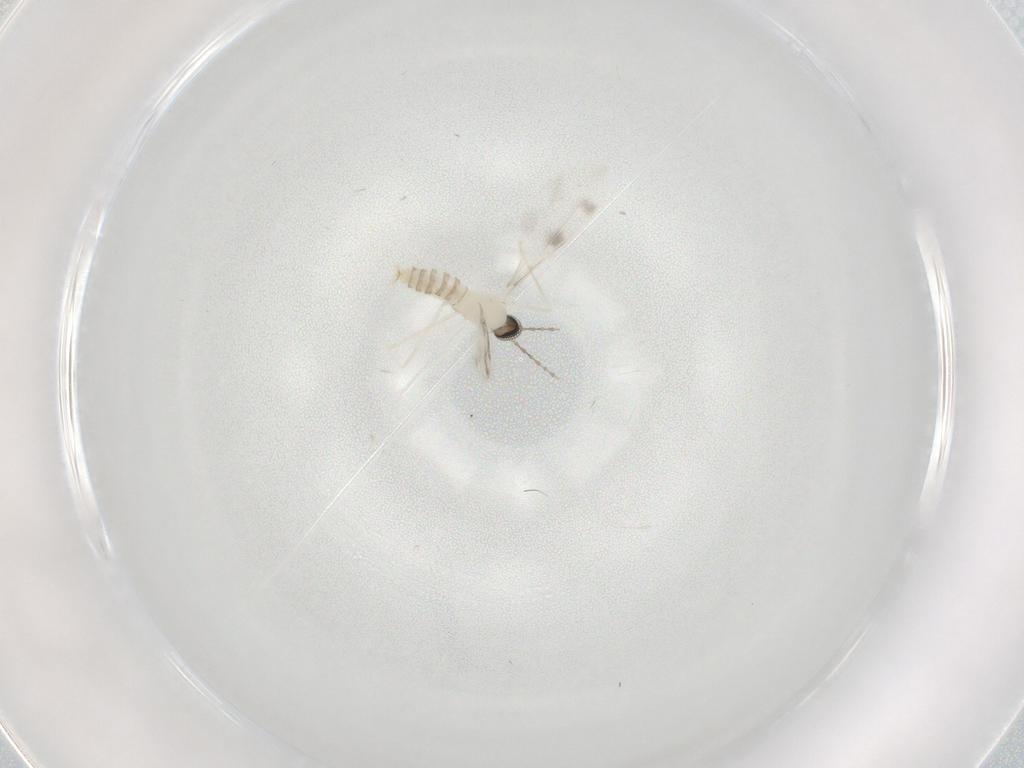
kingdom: Animalia
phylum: Arthropoda
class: Insecta
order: Diptera
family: Cecidomyiidae
